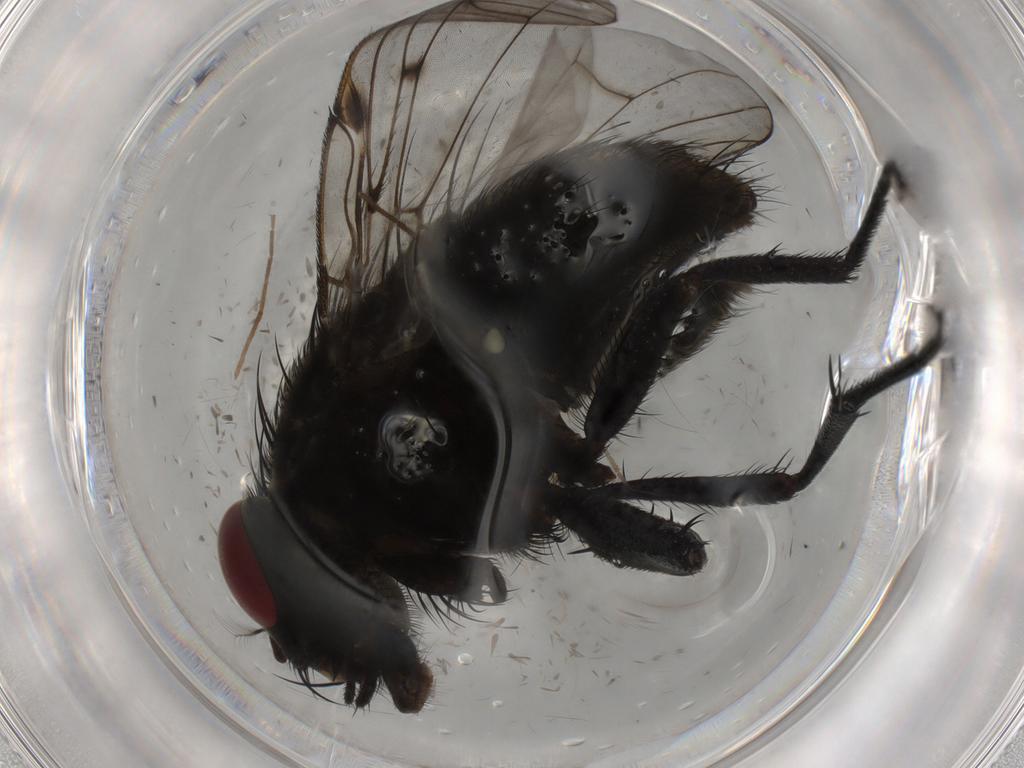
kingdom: Animalia
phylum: Arthropoda
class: Insecta
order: Diptera
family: Muscidae
